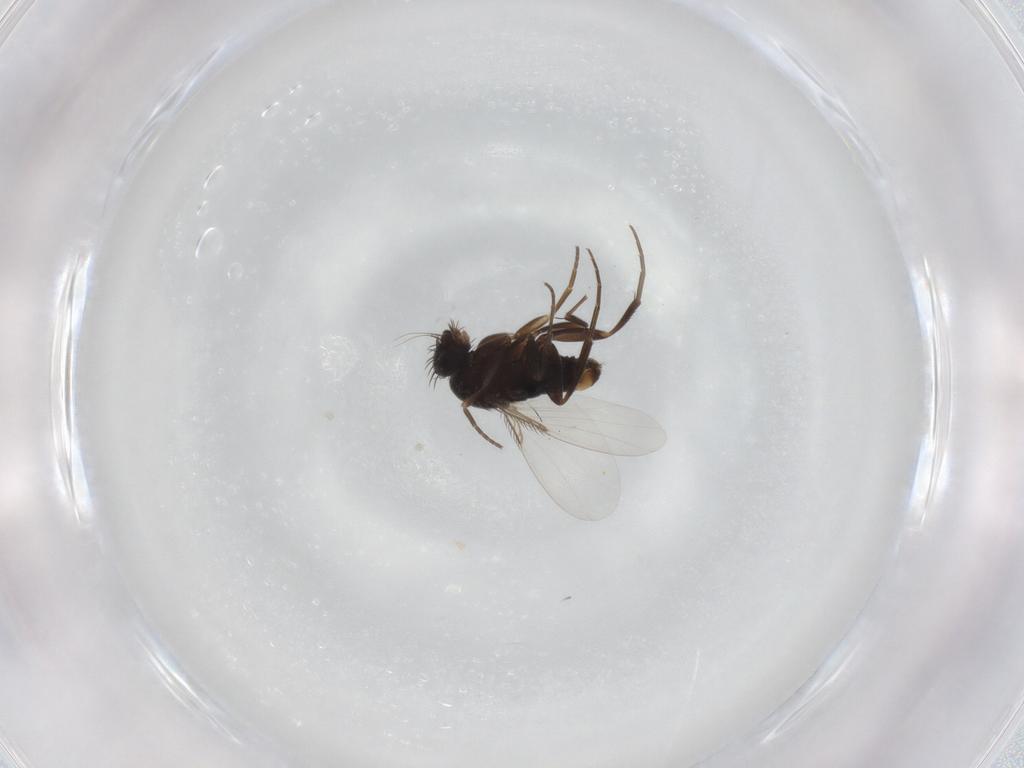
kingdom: Animalia
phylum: Arthropoda
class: Insecta
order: Diptera
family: Phoridae
